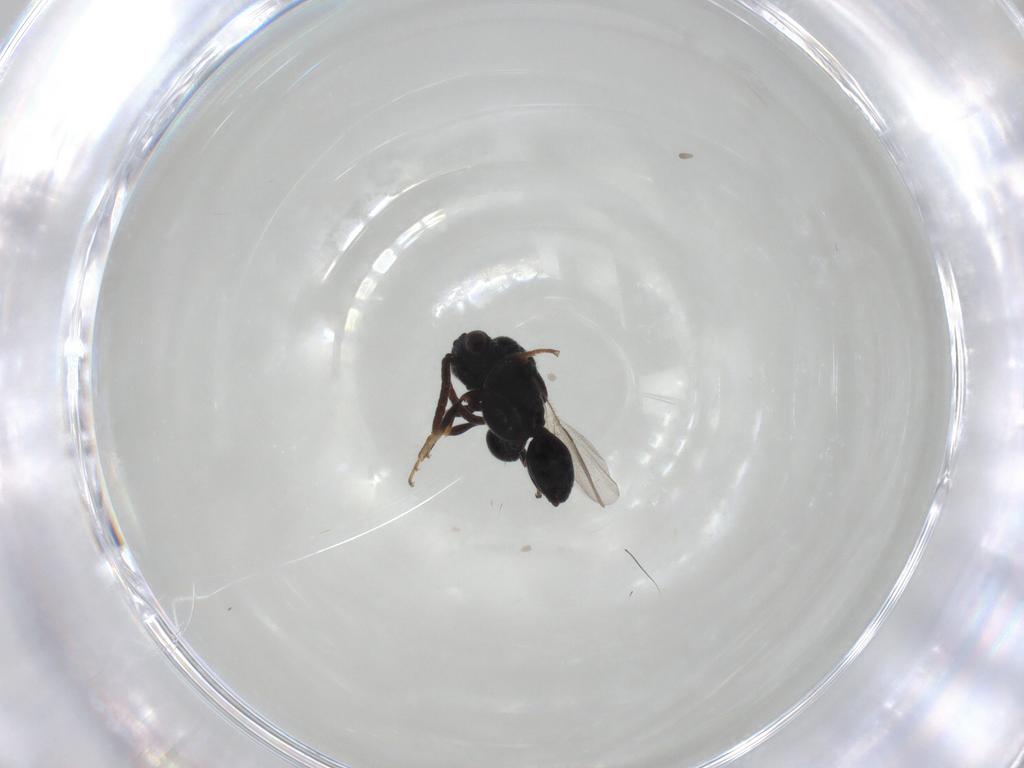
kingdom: Animalia
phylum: Arthropoda
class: Insecta
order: Hymenoptera
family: Chalcididae
